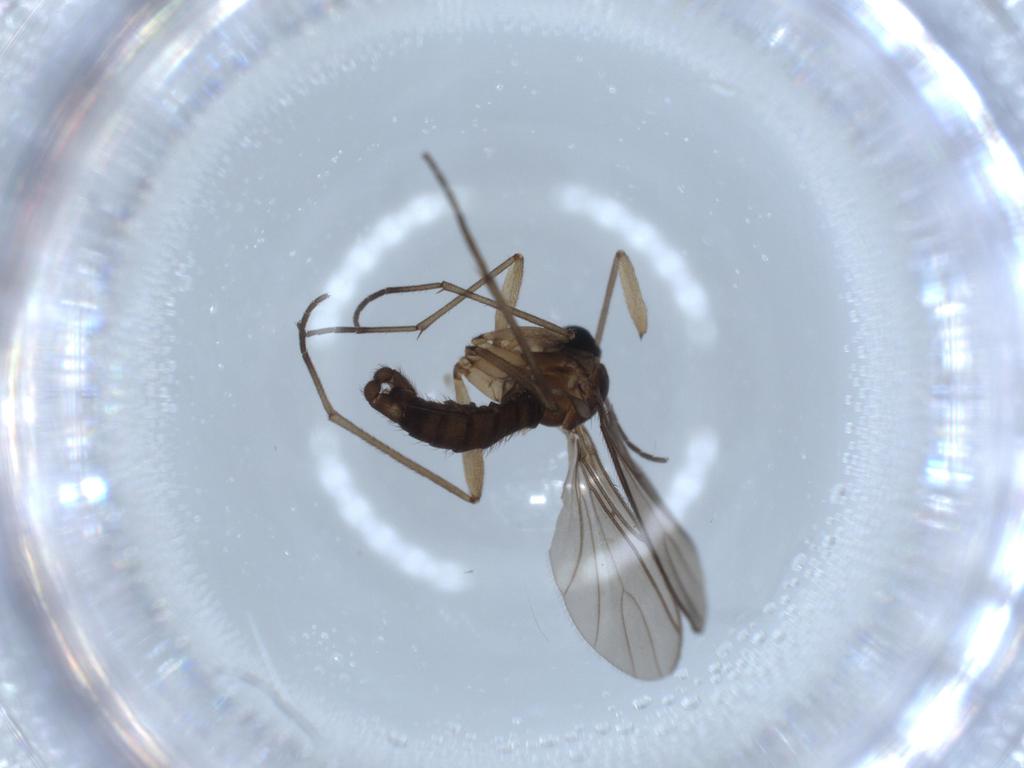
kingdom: Animalia
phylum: Arthropoda
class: Insecta
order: Diptera
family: Sciaridae
